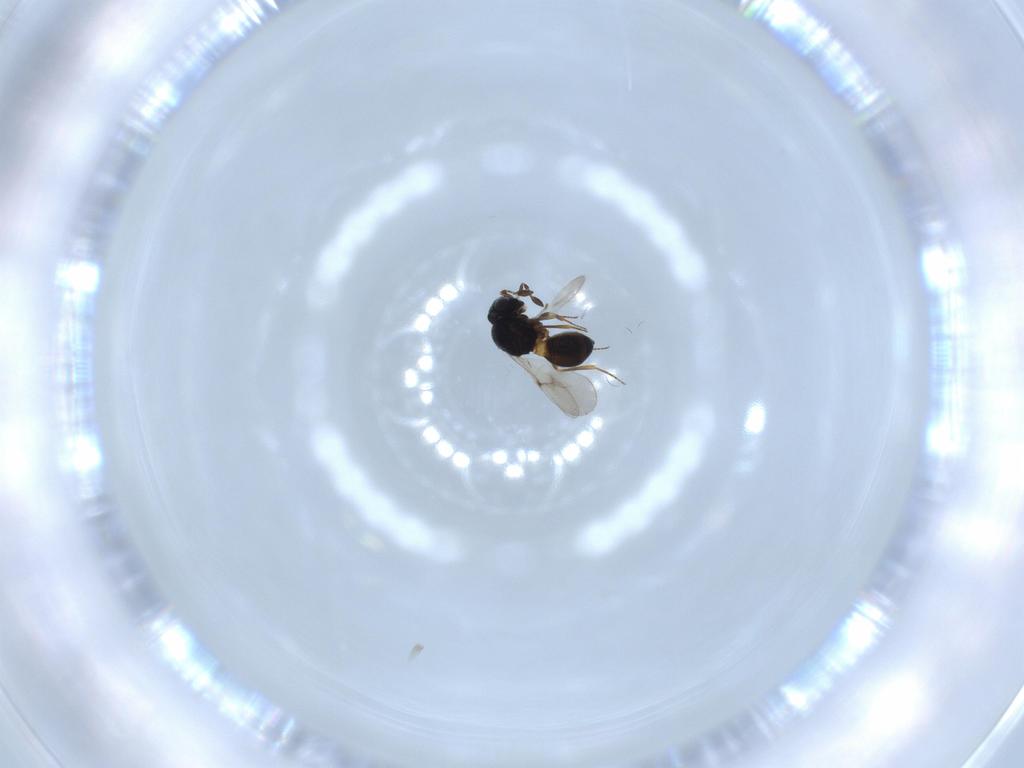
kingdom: Animalia
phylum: Arthropoda
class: Insecta
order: Hymenoptera
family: Scelionidae
